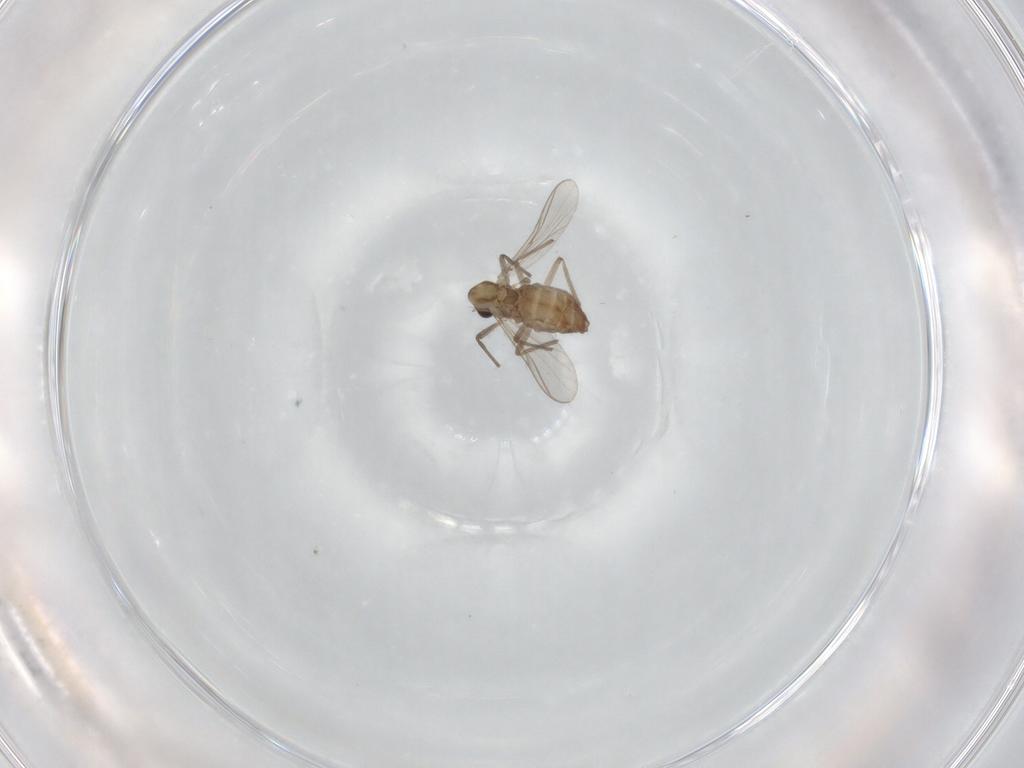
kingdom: Animalia
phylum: Arthropoda
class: Insecta
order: Diptera
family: Chironomidae
